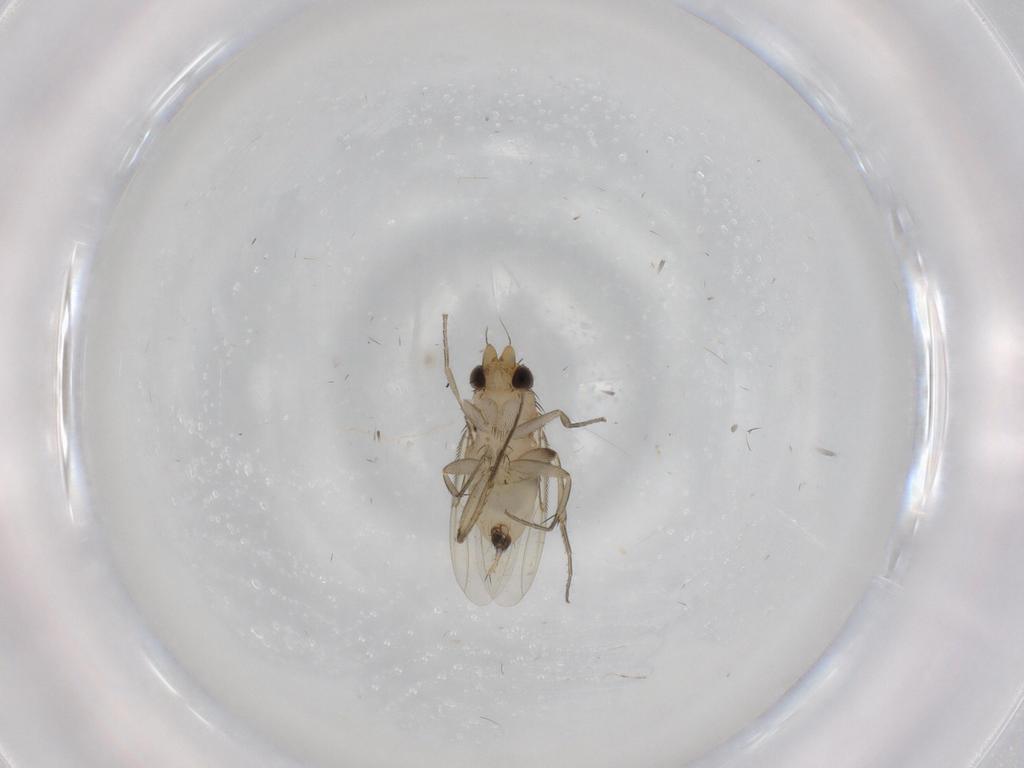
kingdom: Animalia
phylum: Arthropoda
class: Insecta
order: Diptera
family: Phoridae
